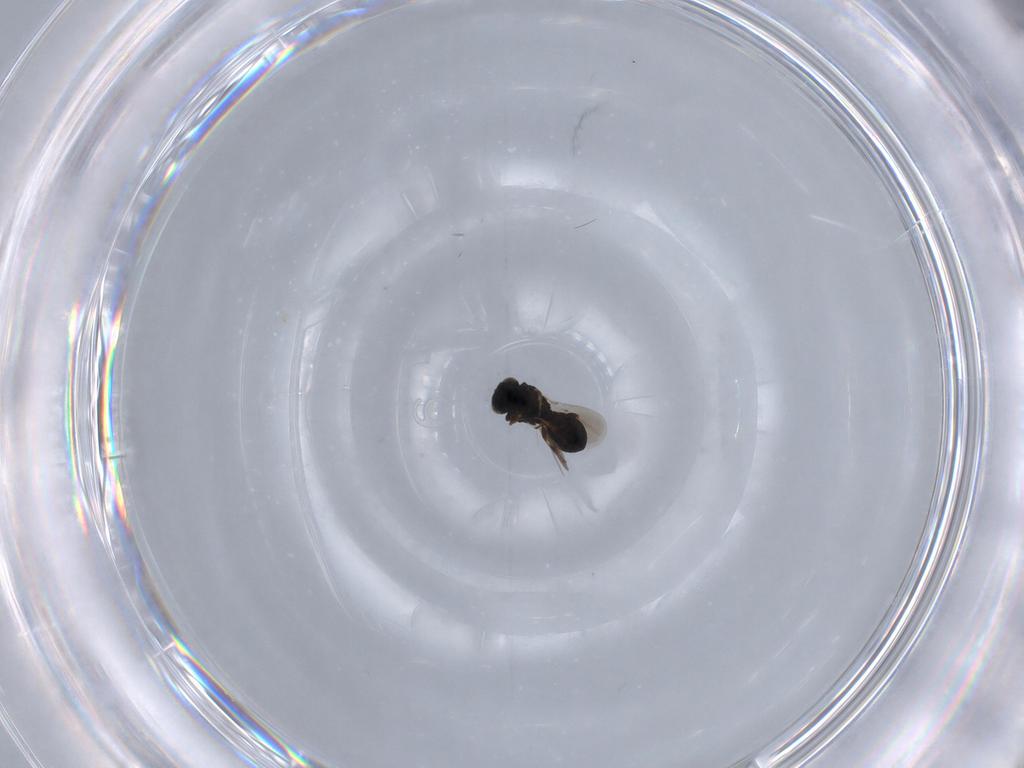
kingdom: Animalia
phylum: Arthropoda
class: Insecta
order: Hymenoptera
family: Platygastridae
